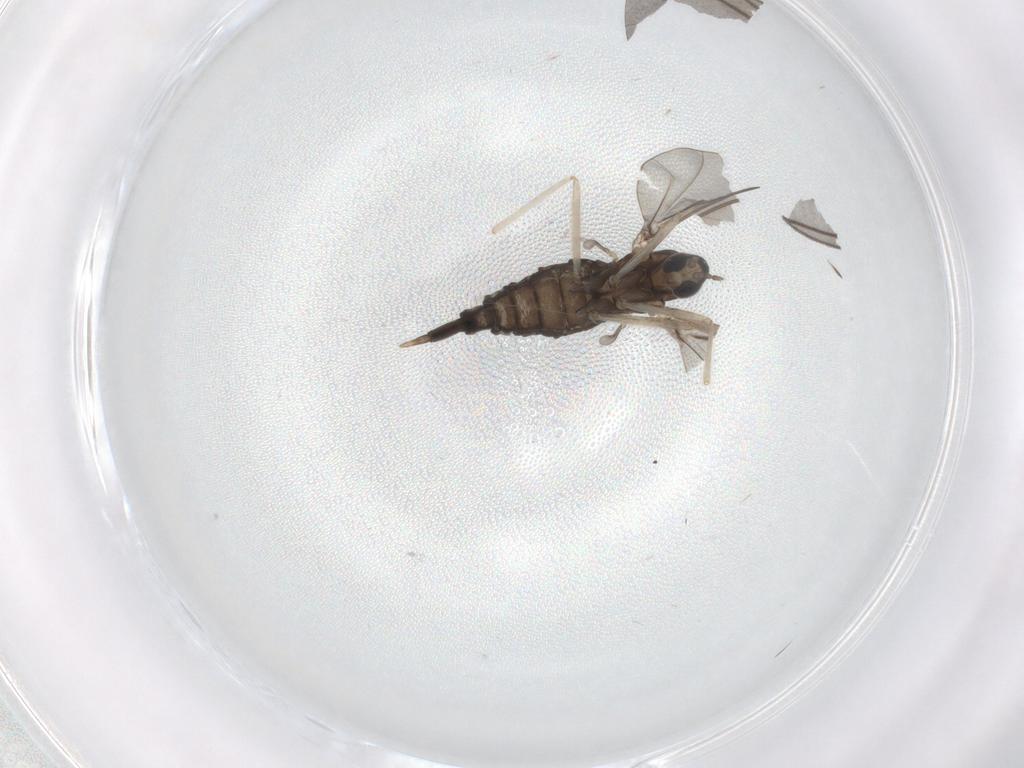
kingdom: Animalia
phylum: Arthropoda
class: Insecta
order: Diptera
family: Sciaridae
